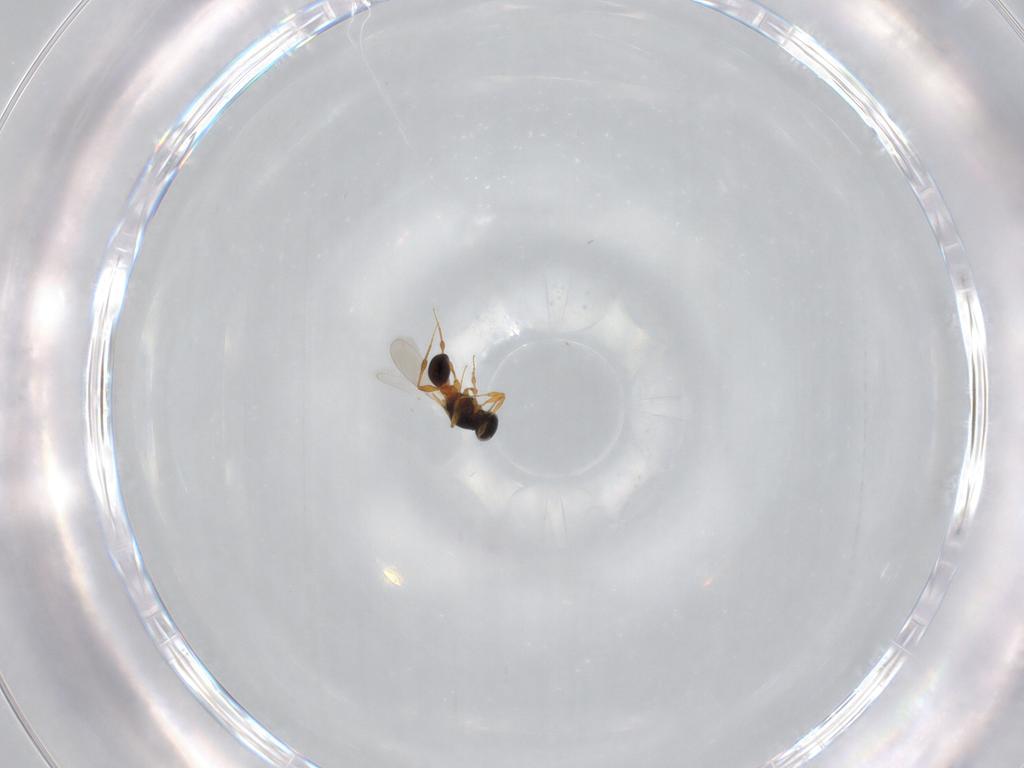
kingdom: Animalia
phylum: Arthropoda
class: Insecta
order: Hymenoptera
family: Platygastridae
